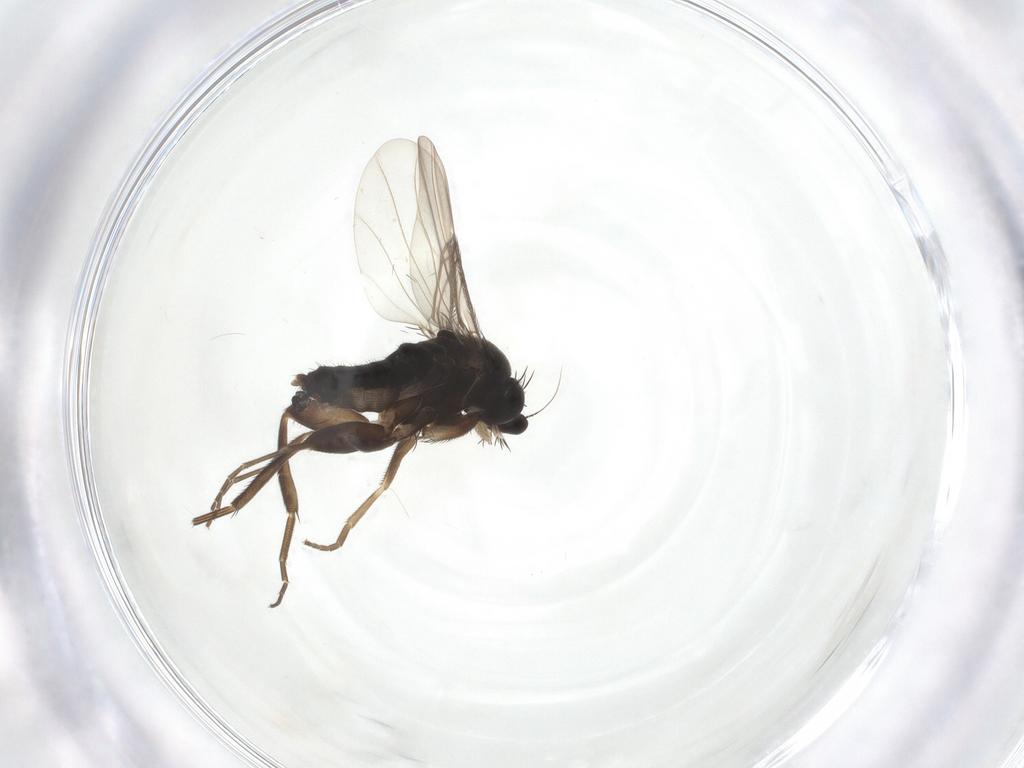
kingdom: Animalia
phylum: Arthropoda
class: Insecta
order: Diptera
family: Phoridae
